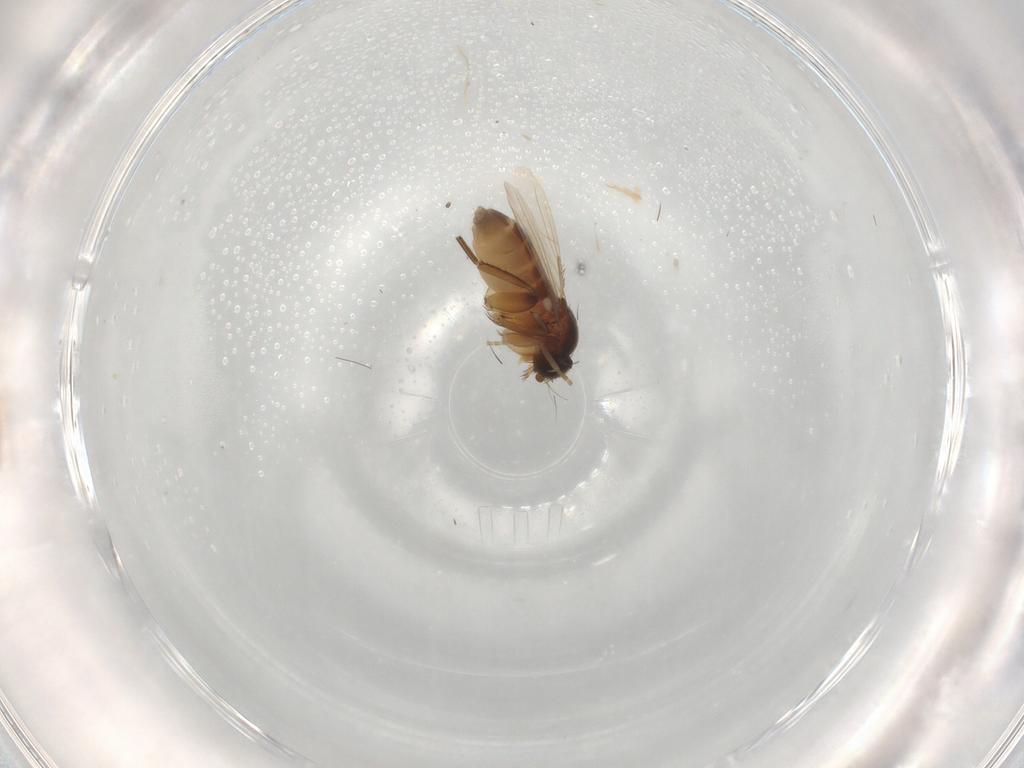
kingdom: Animalia
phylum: Arthropoda
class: Insecta
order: Diptera
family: Phoridae
